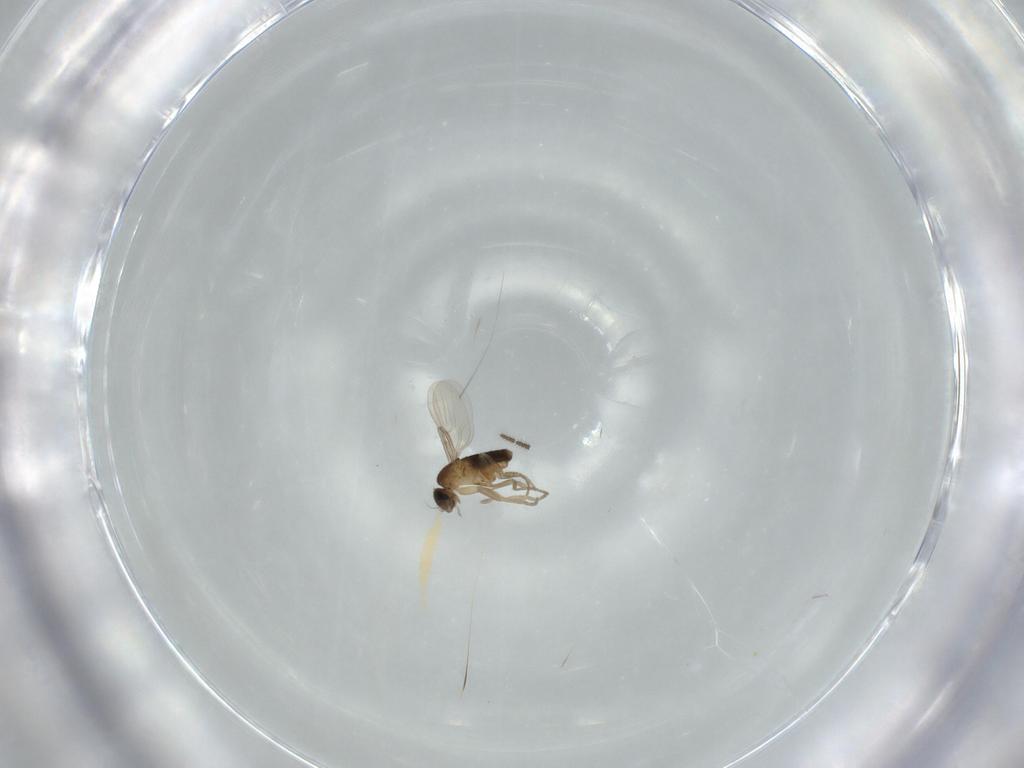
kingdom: Animalia
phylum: Arthropoda
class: Insecta
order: Diptera
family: Phoridae
